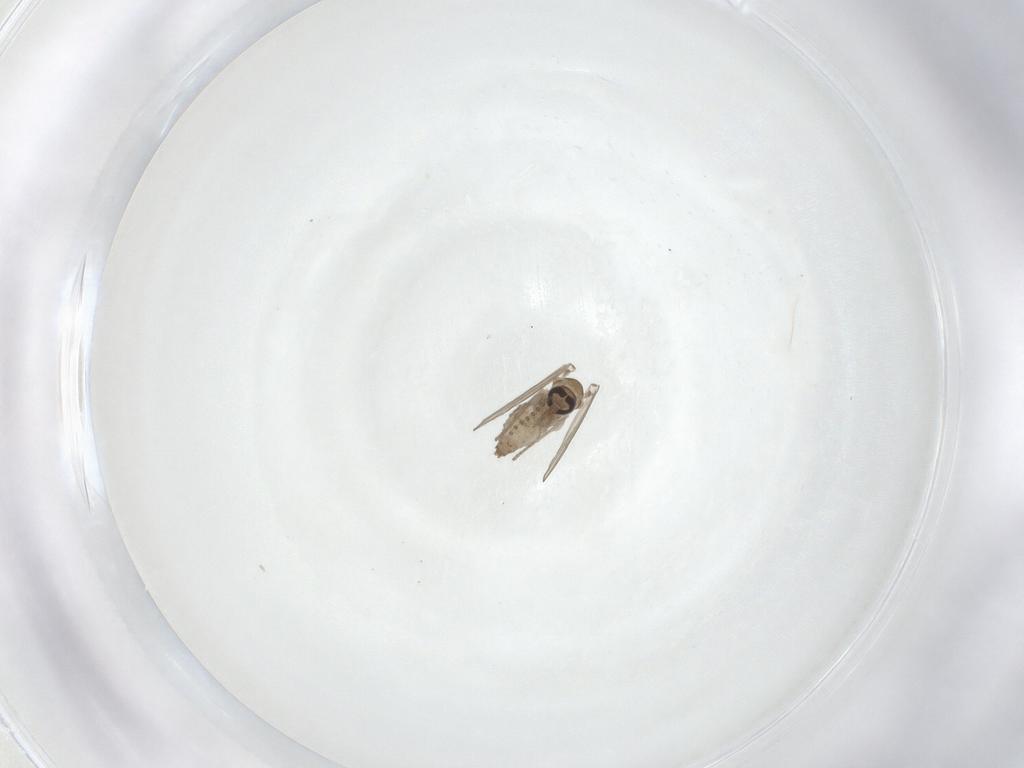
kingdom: Animalia
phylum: Arthropoda
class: Insecta
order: Diptera
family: Psychodidae
